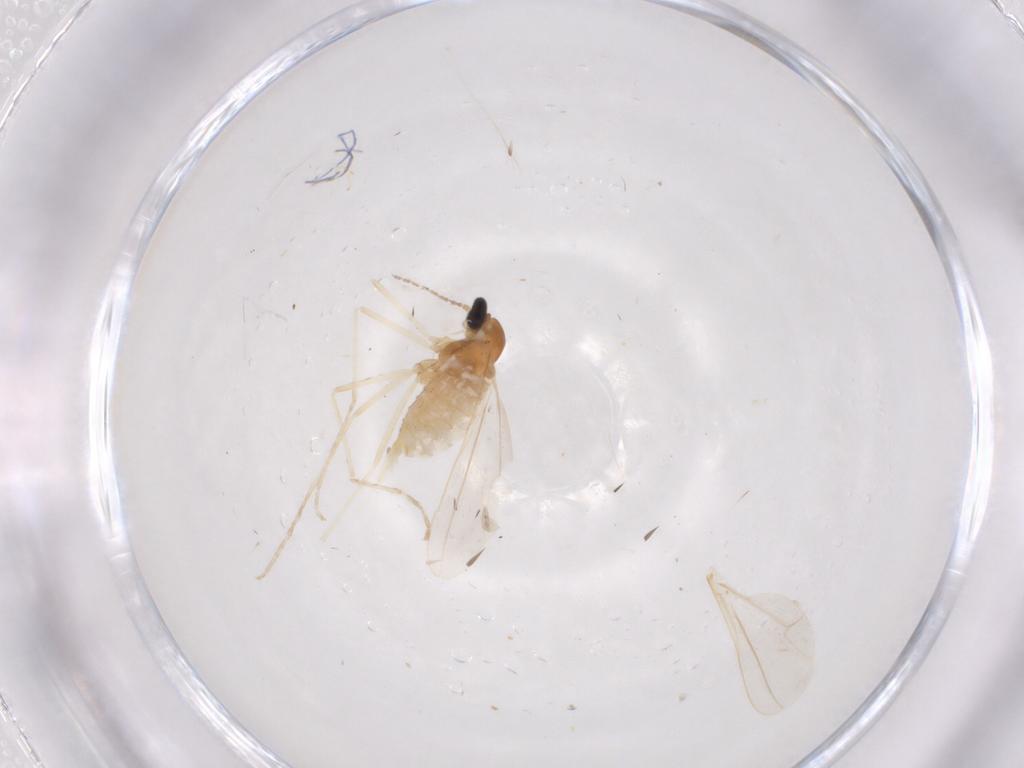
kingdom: Animalia
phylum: Arthropoda
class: Insecta
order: Diptera
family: Cecidomyiidae
